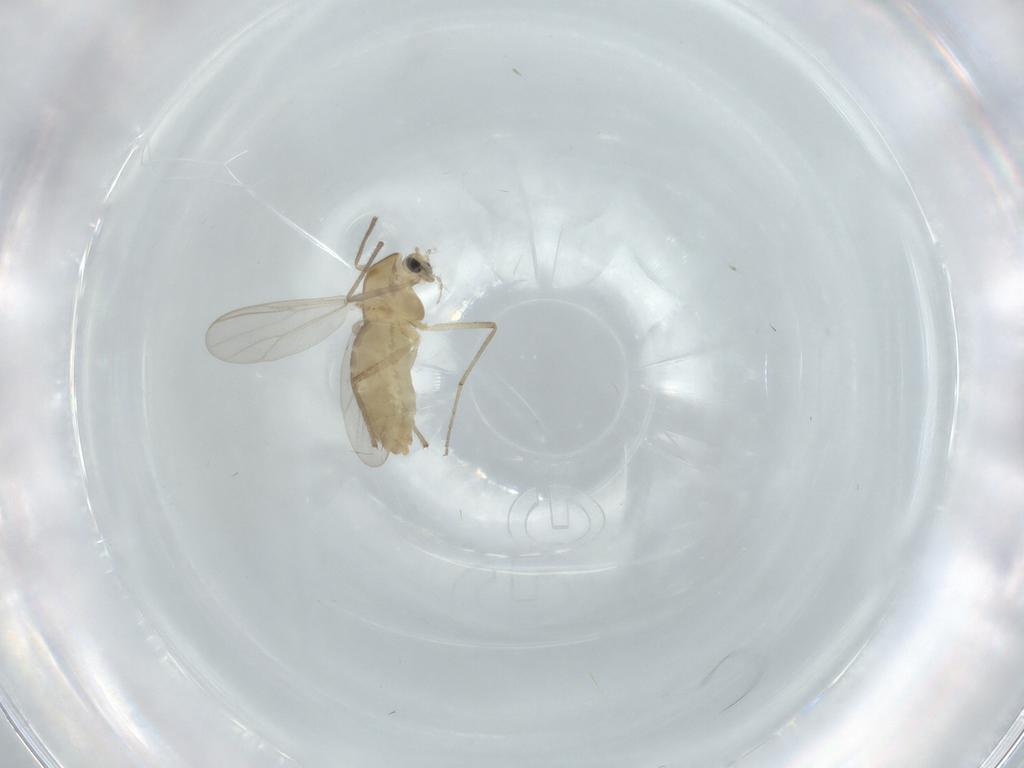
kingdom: Animalia
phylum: Arthropoda
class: Insecta
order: Diptera
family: Chironomidae
